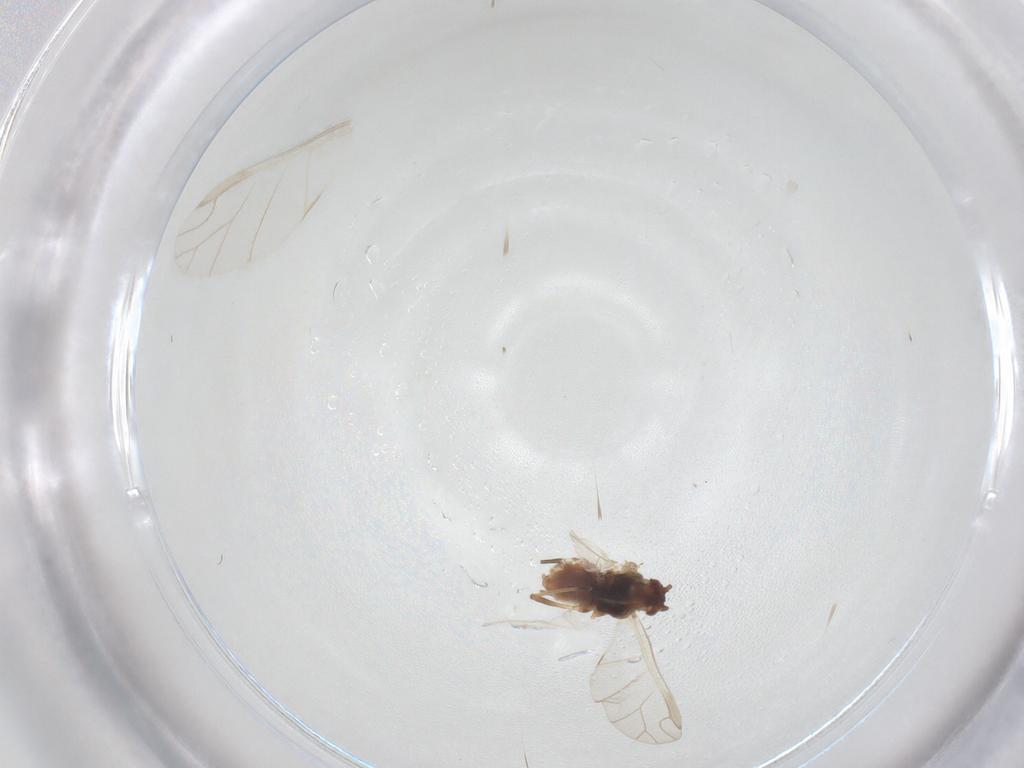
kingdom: Animalia
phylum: Arthropoda
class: Insecta
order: Hemiptera
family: Aphididae
